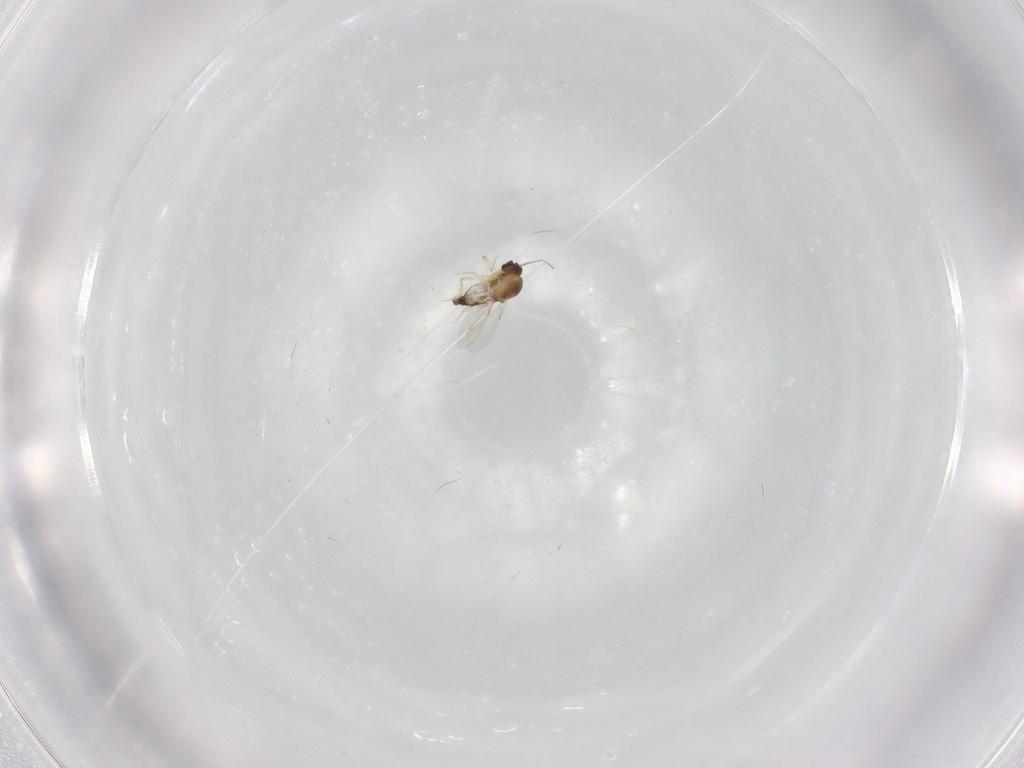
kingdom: Animalia
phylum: Arthropoda
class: Insecta
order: Diptera
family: Cecidomyiidae
